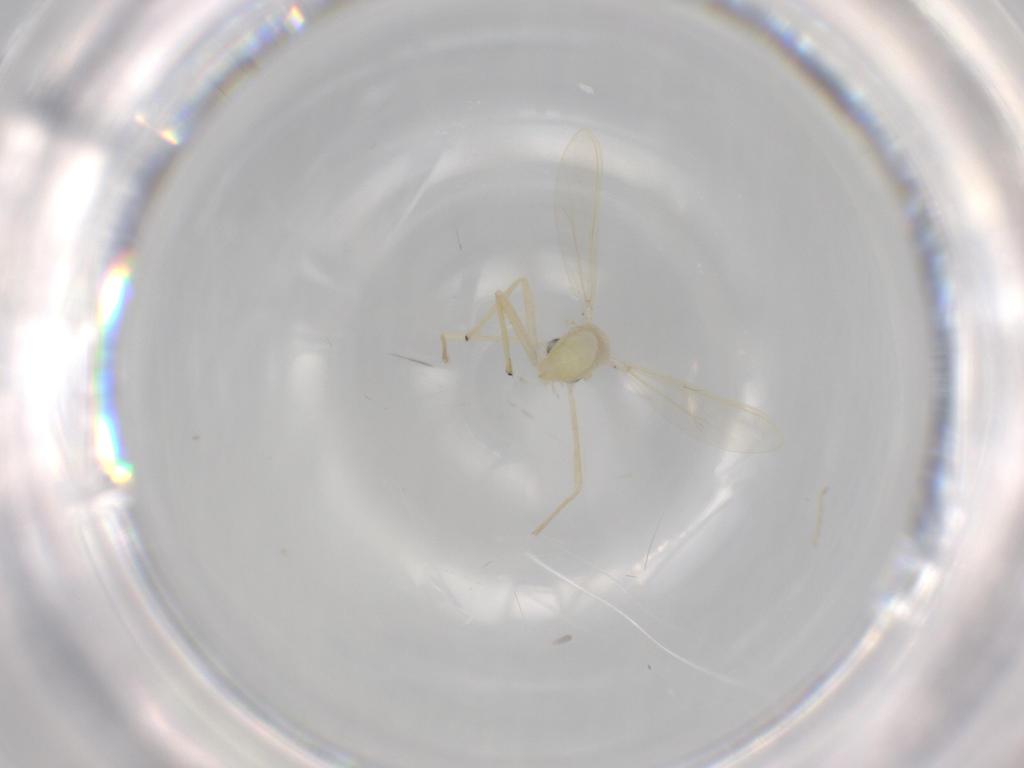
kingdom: Animalia
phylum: Arthropoda
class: Insecta
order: Diptera
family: Chironomidae
